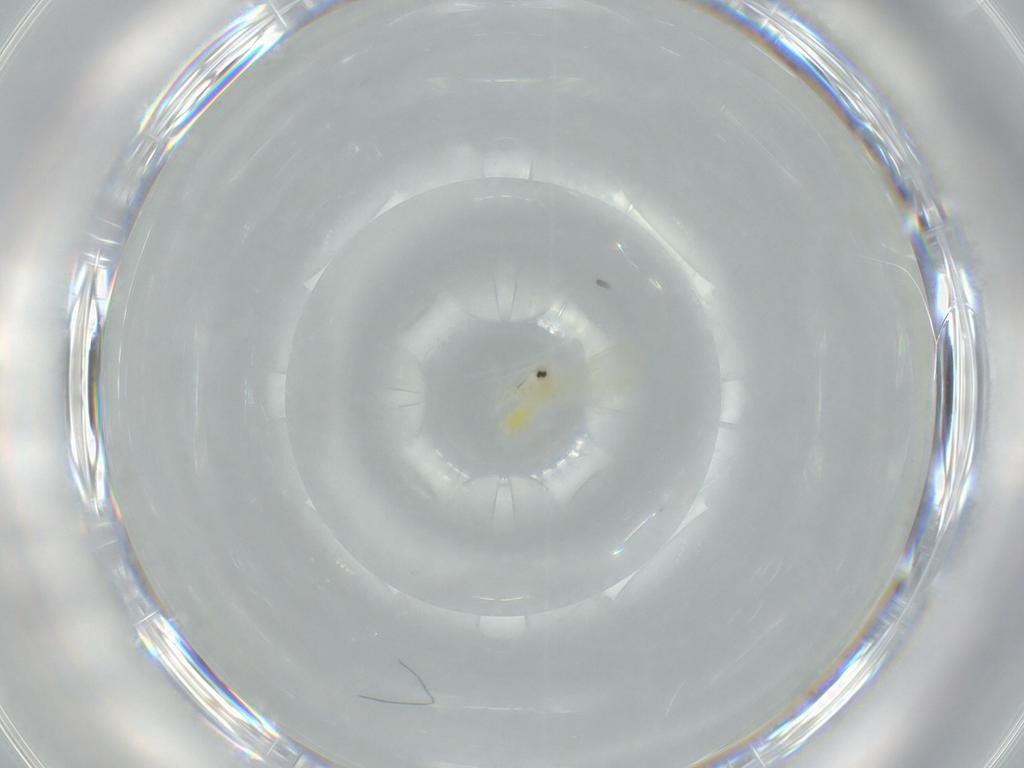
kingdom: Animalia
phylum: Arthropoda
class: Insecta
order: Hemiptera
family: Aleyrodidae
